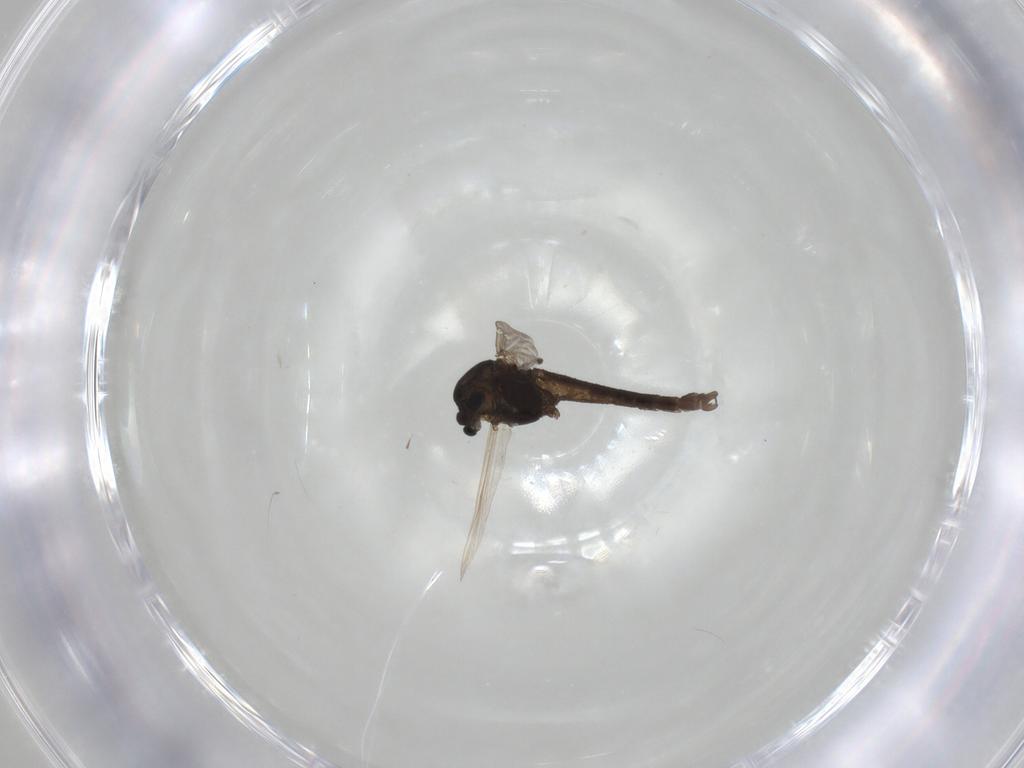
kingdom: Animalia
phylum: Arthropoda
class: Insecta
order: Diptera
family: Chironomidae
